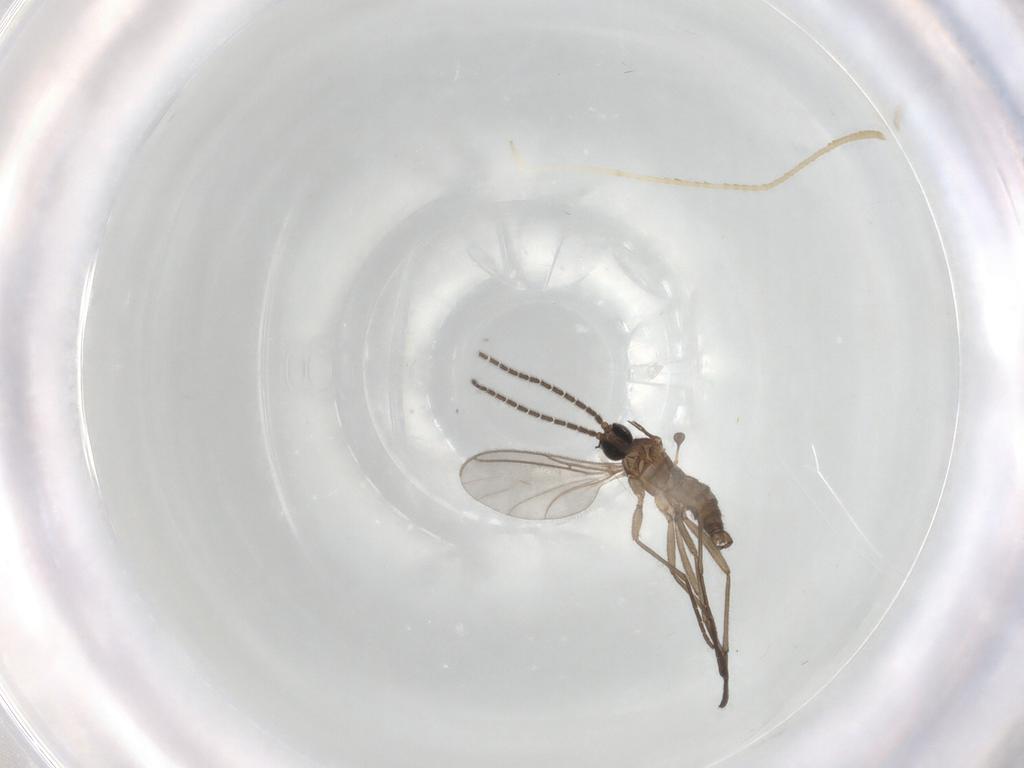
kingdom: Animalia
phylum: Arthropoda
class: Insecta
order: Diptera
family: Sciaridae
